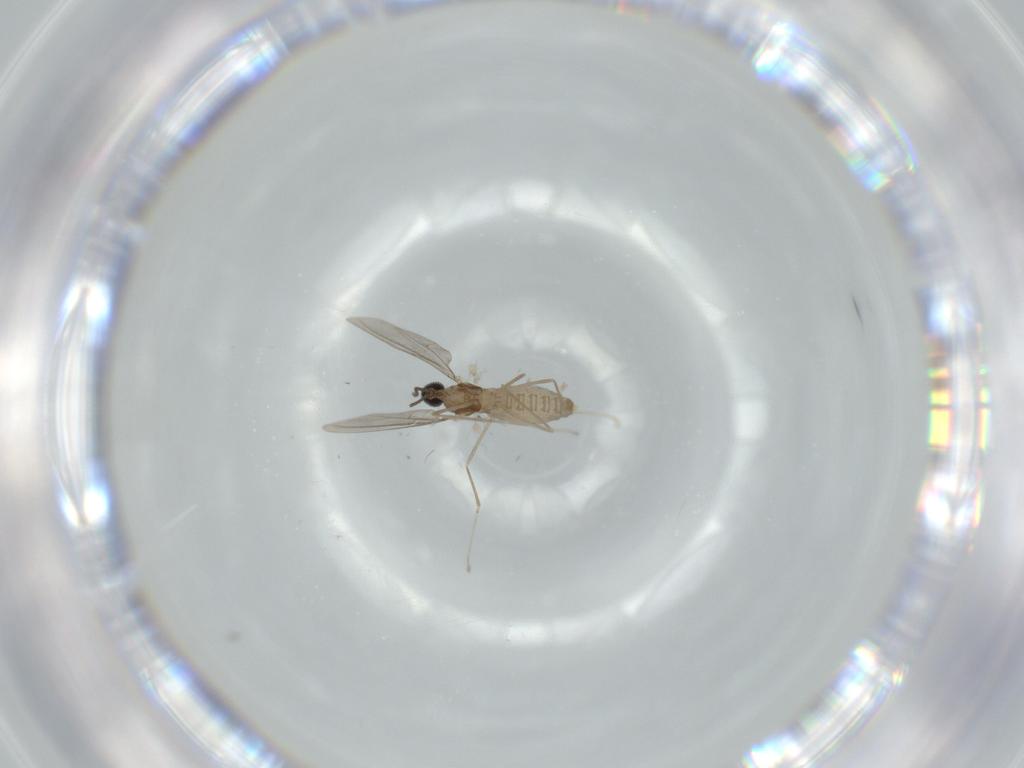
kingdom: Animalia
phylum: Arthropoda
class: Insecta
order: Diptera
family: Cecidomyiidae
